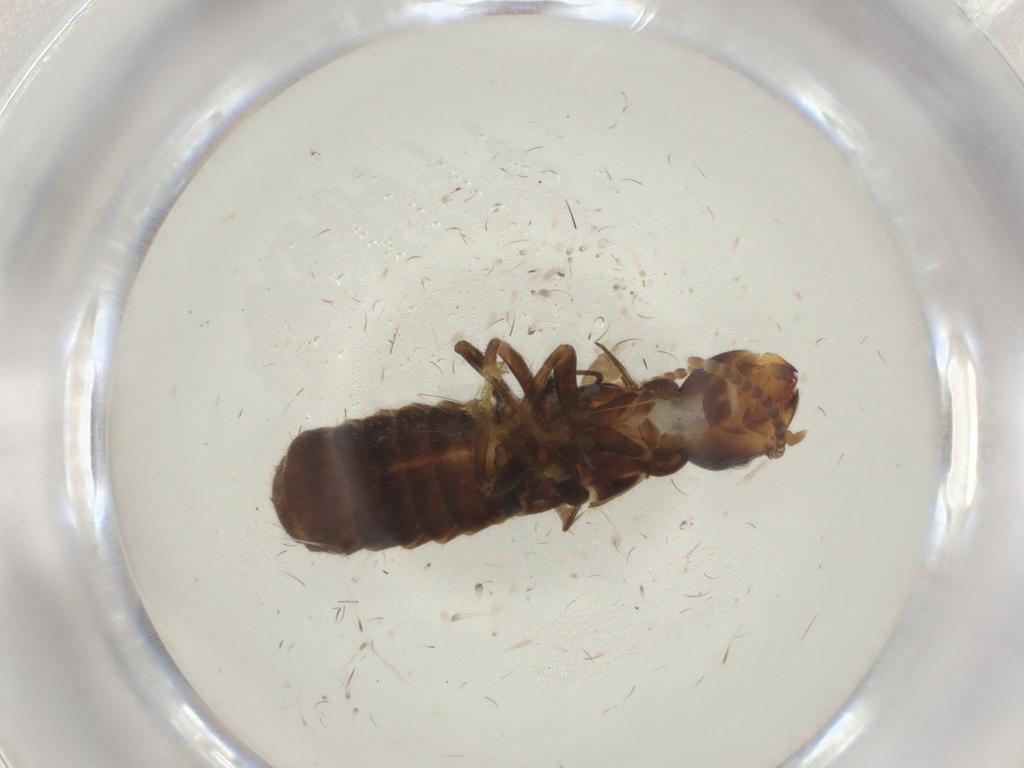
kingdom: Animalia
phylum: Arthropoda
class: Insecta
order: Blattodea
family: Rhinotermitidae
